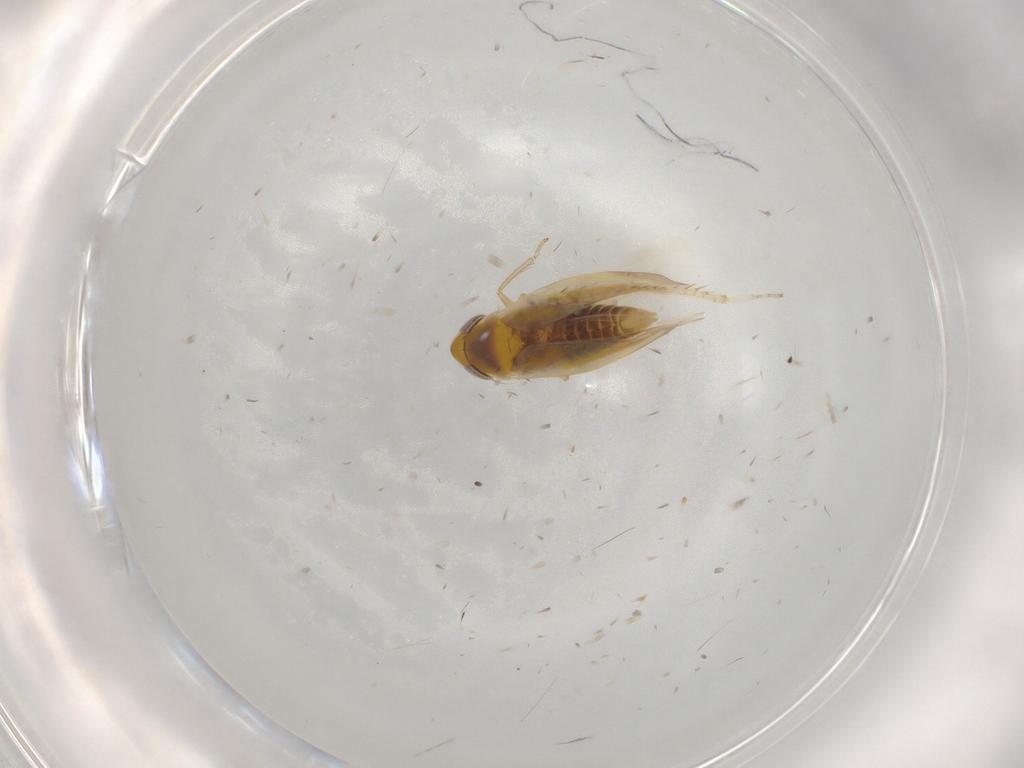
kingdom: Animalia
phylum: Arthropoda
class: Insecta
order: Hemiptera
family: Cicadellidae
